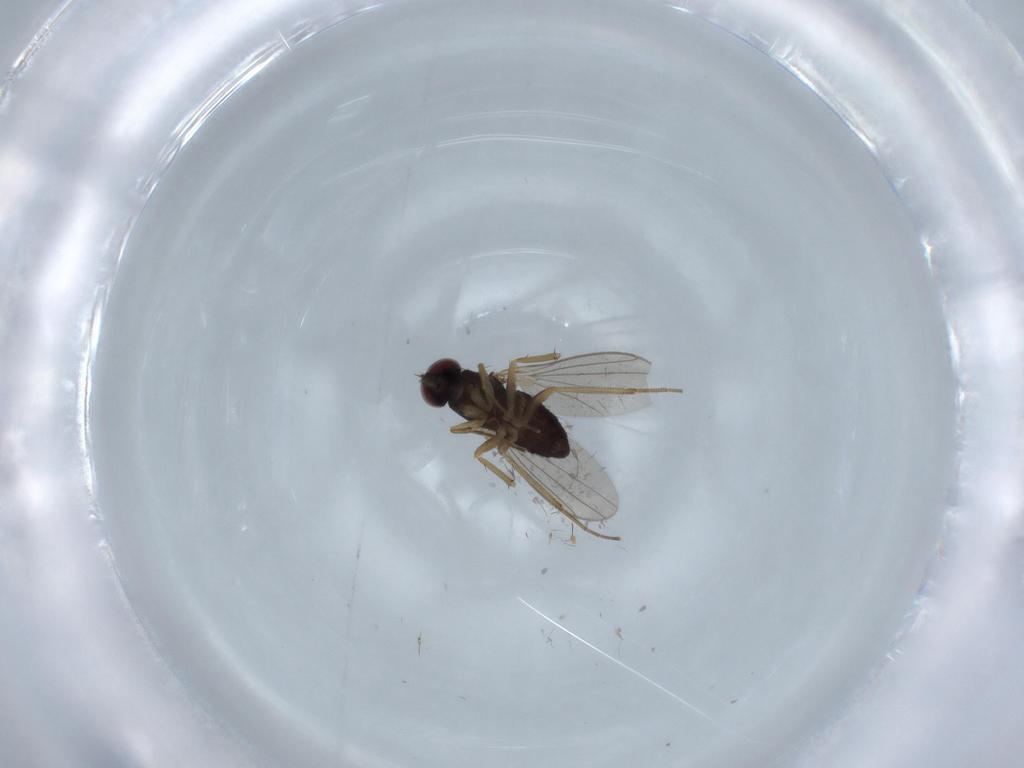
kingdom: Animalia
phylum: Arthropoda
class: Insecta
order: Diptera
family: Dolichopodidae
